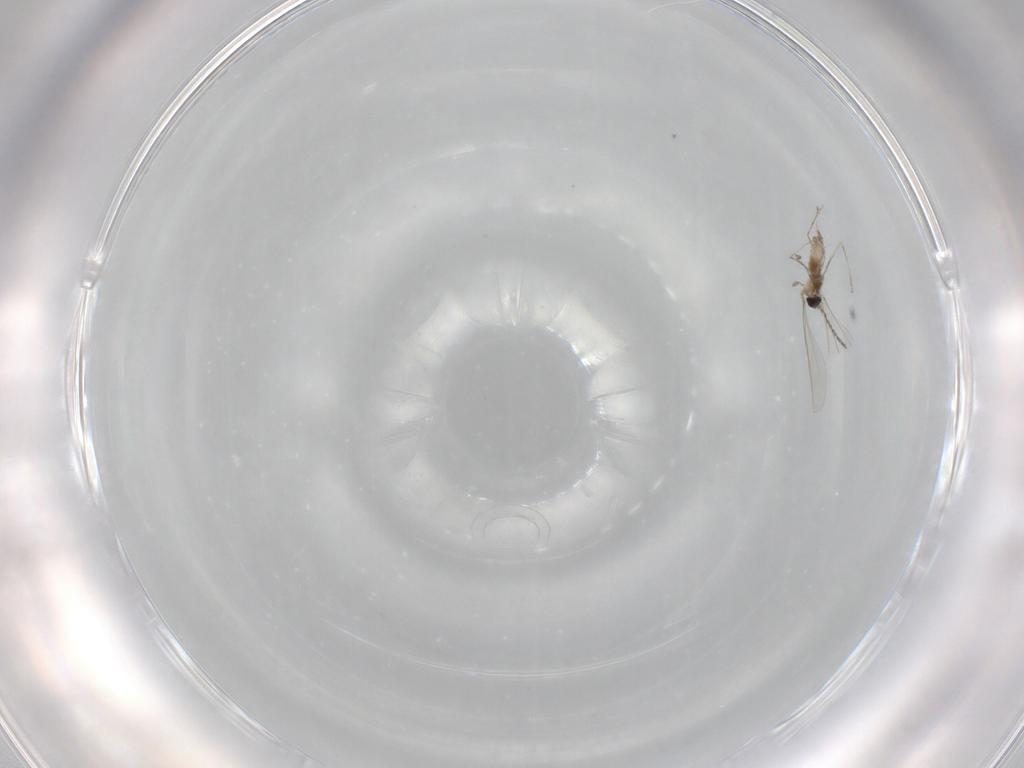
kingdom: Animalia
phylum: Arthropoda
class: Insecta
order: Diptera
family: Cecidomyiidae
